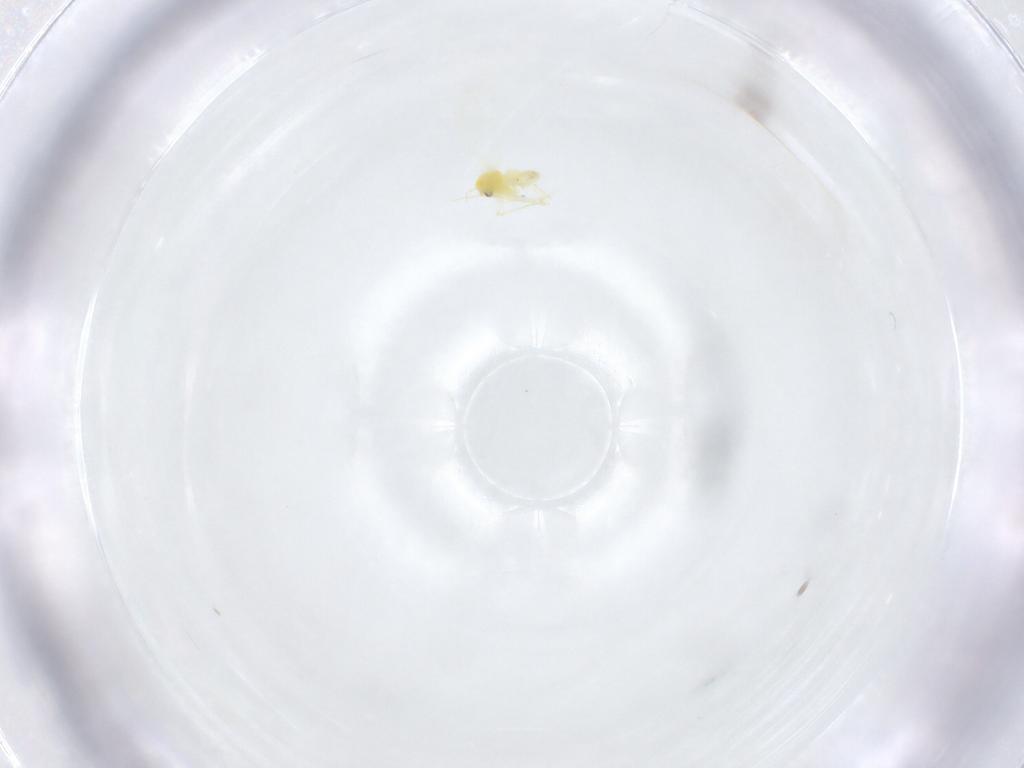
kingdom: Animalia
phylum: Arthropoda
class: Insecta
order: Hemiptera
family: Aleyrodidae
